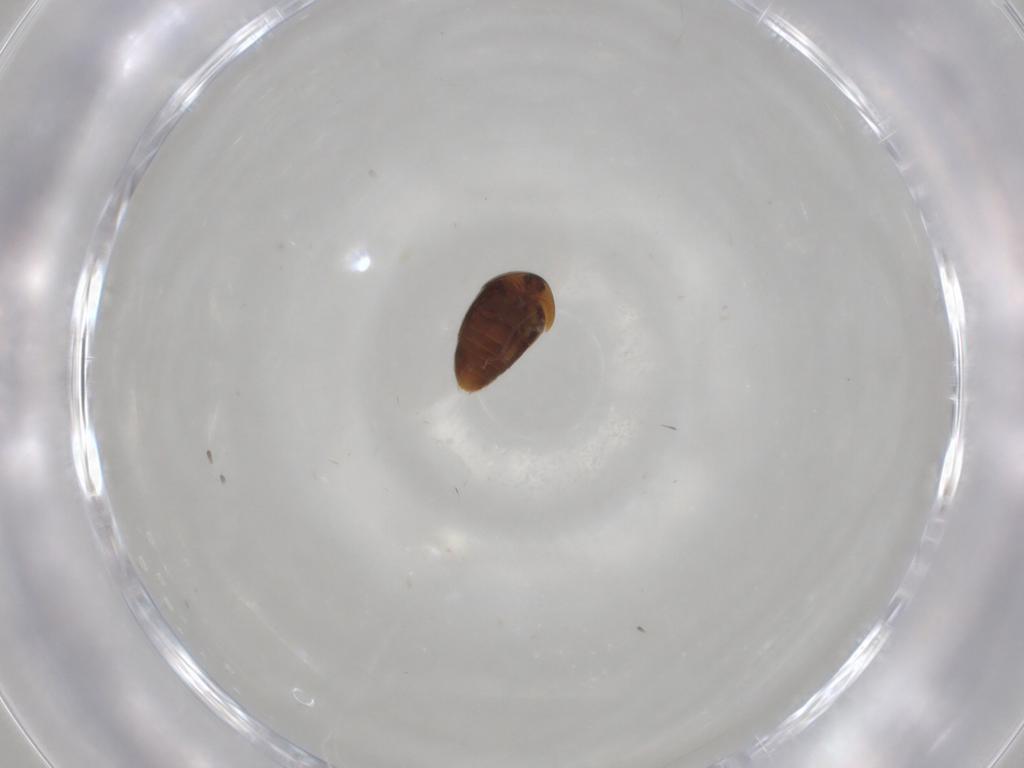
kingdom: Animalia
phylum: Arthropoda
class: Insecta
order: Coleoptera
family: Corylophidae
